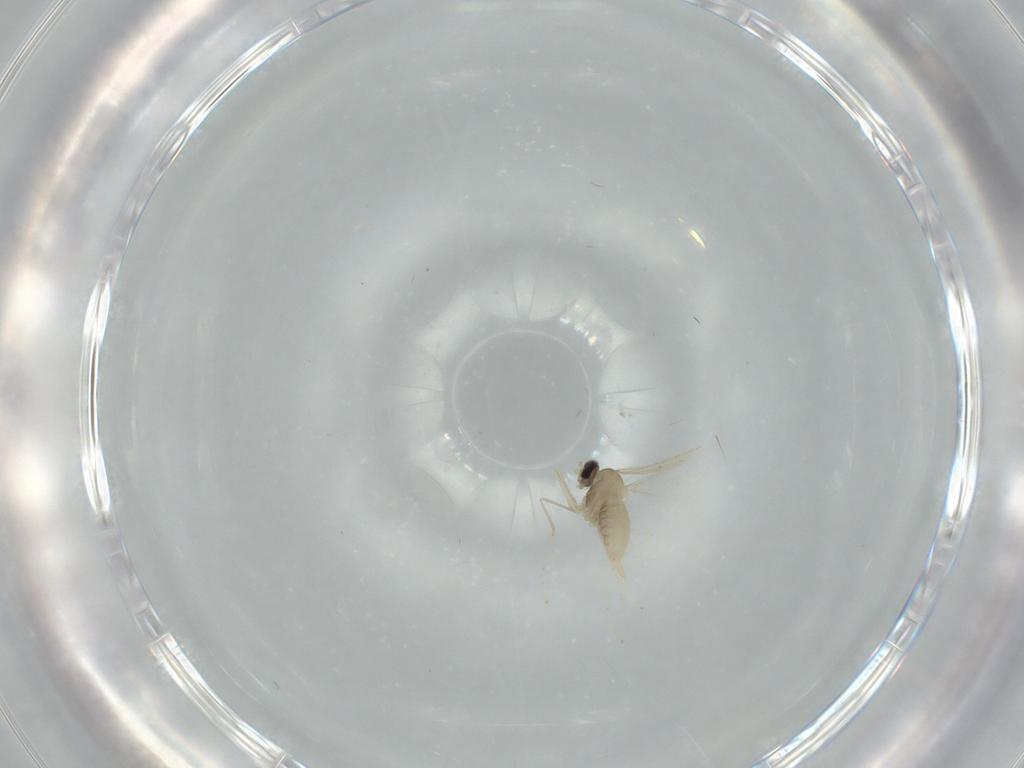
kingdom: Animalia
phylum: Arthropoda
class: Insecta
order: Diptera
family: Cecidomyiidae
